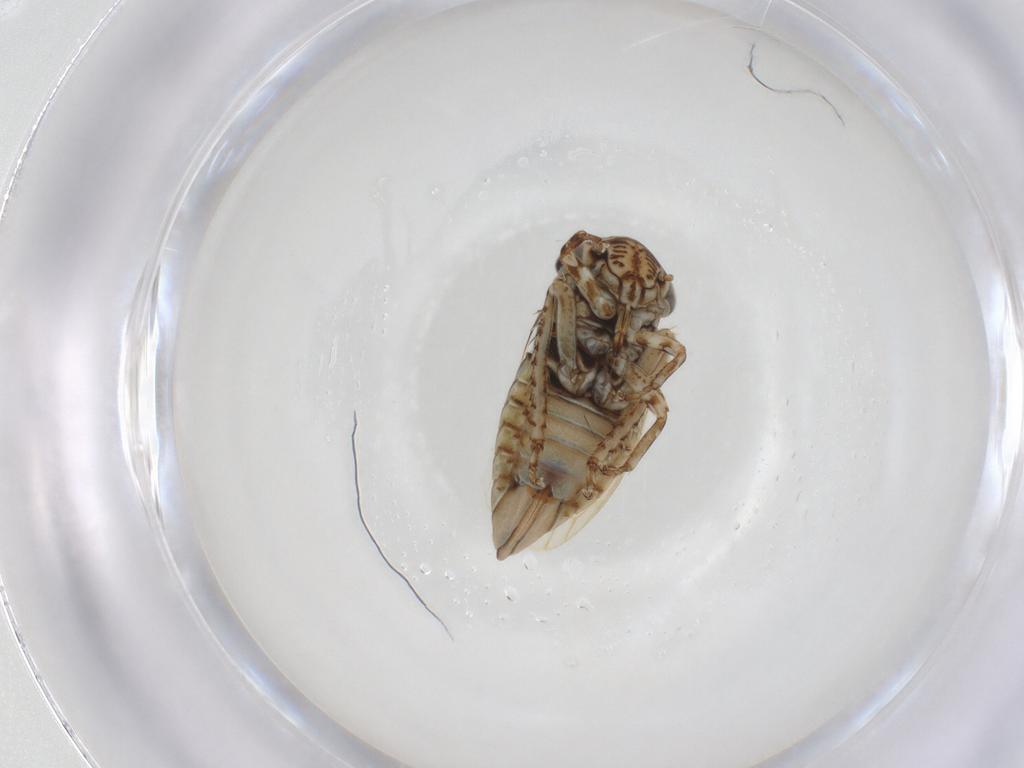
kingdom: Animalia
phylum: Arthropoda
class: Insecta
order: Hemiptera
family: Cicadellidae
